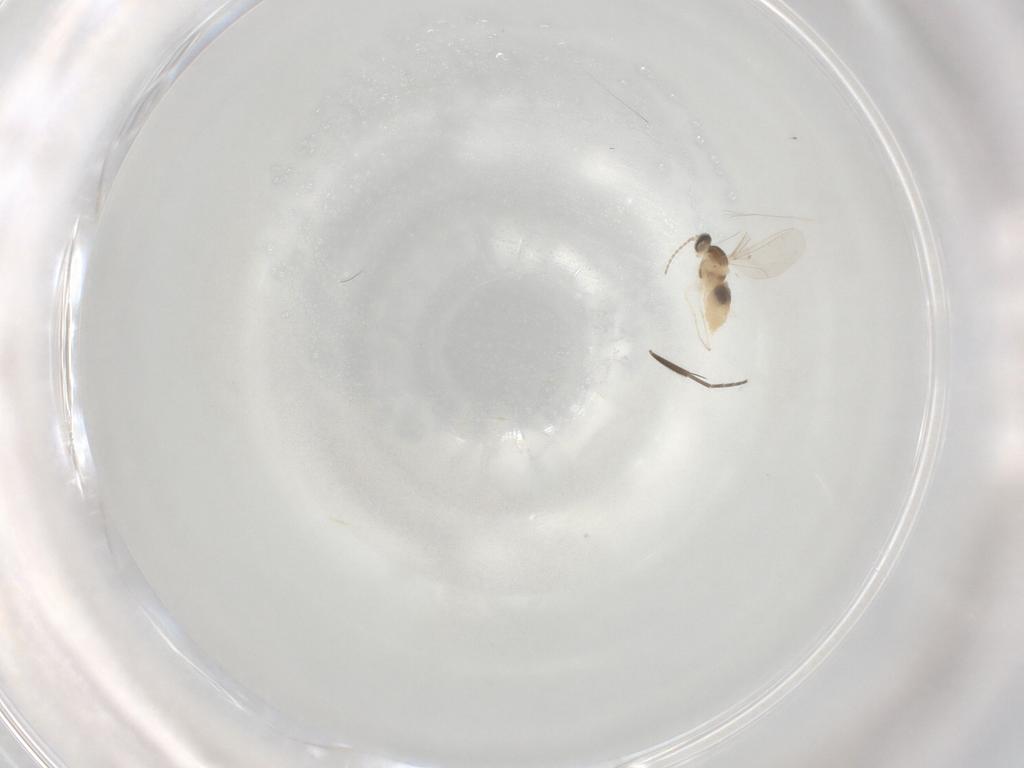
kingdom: Animalia
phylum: Arthropoda
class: Insecta
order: Diptera
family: Cecidomyiidae
